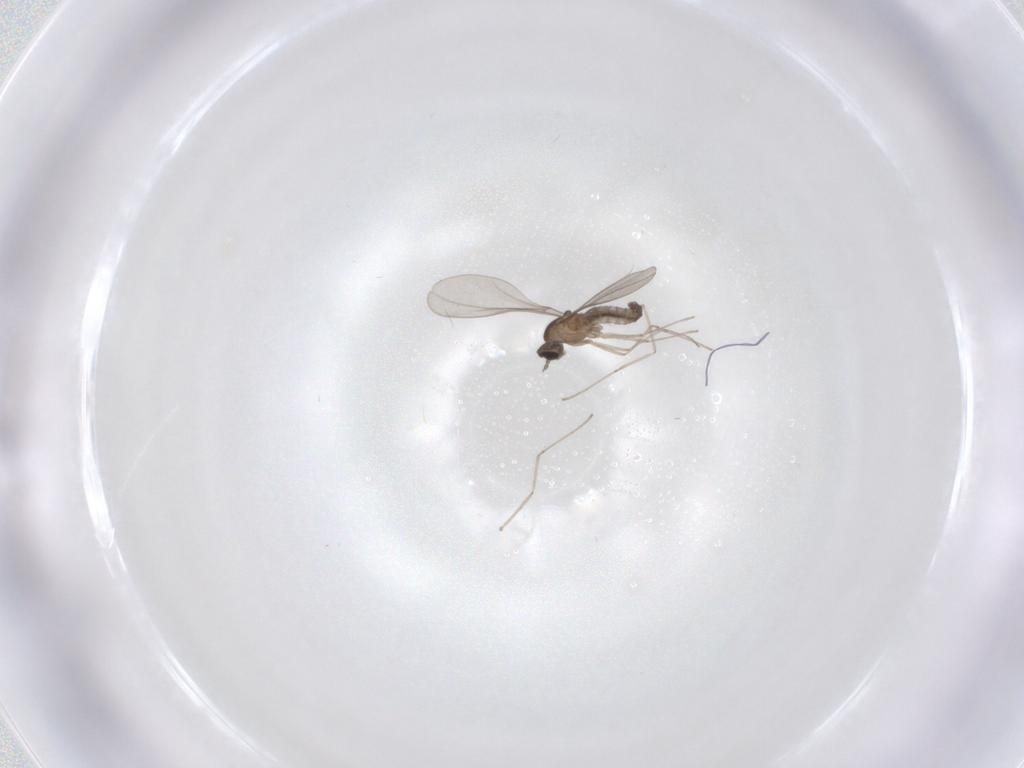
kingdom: Animalia
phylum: Arthropoda
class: Insecta
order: Diptera
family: Cecidomyiidae
